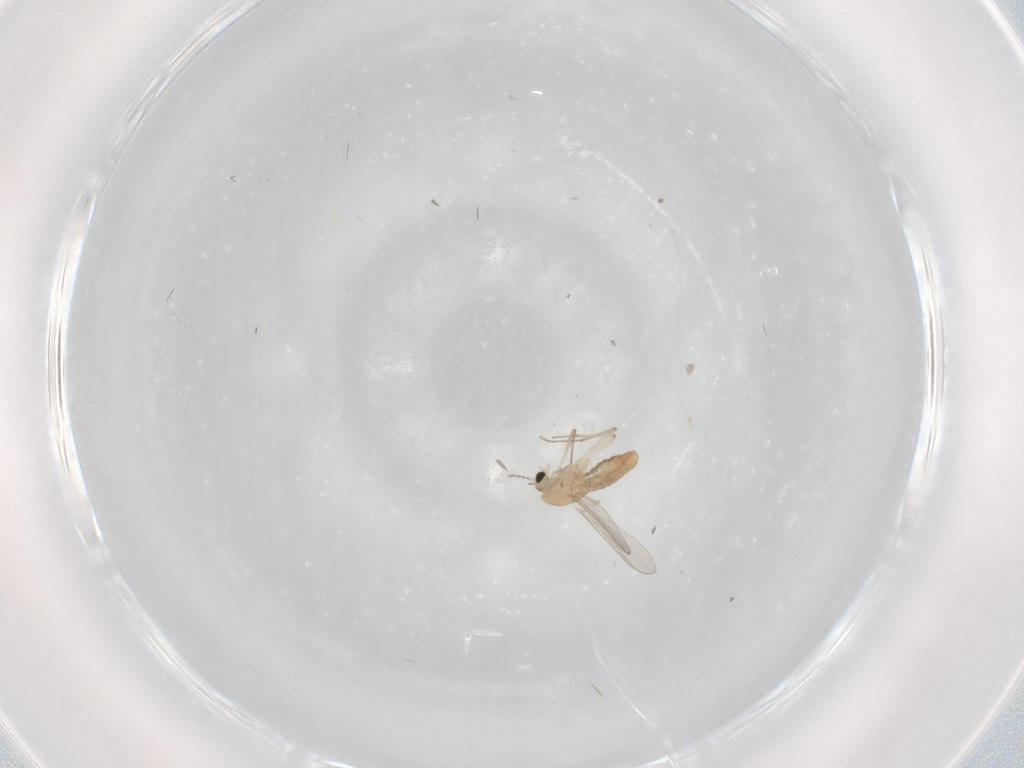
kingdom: Animalia
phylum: Arthropoda
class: Insecta
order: Diptera
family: Chironomidae
